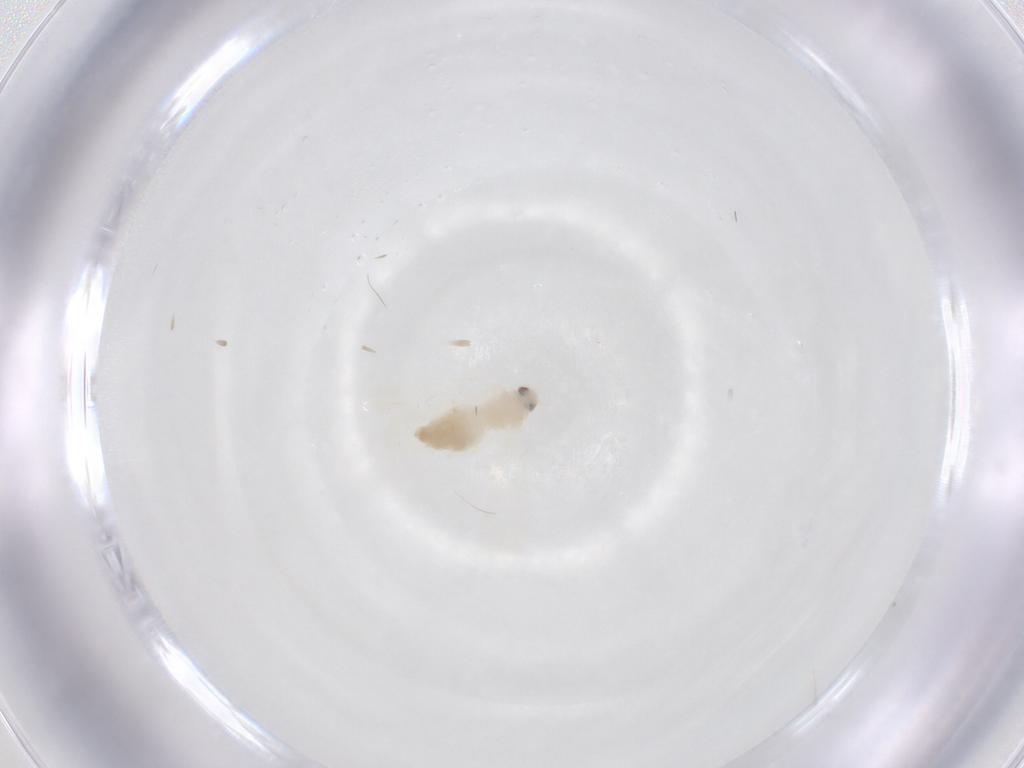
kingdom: Animalia
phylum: Arthropoda
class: Insecta
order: Hemiptera
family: Aleyrodidae
